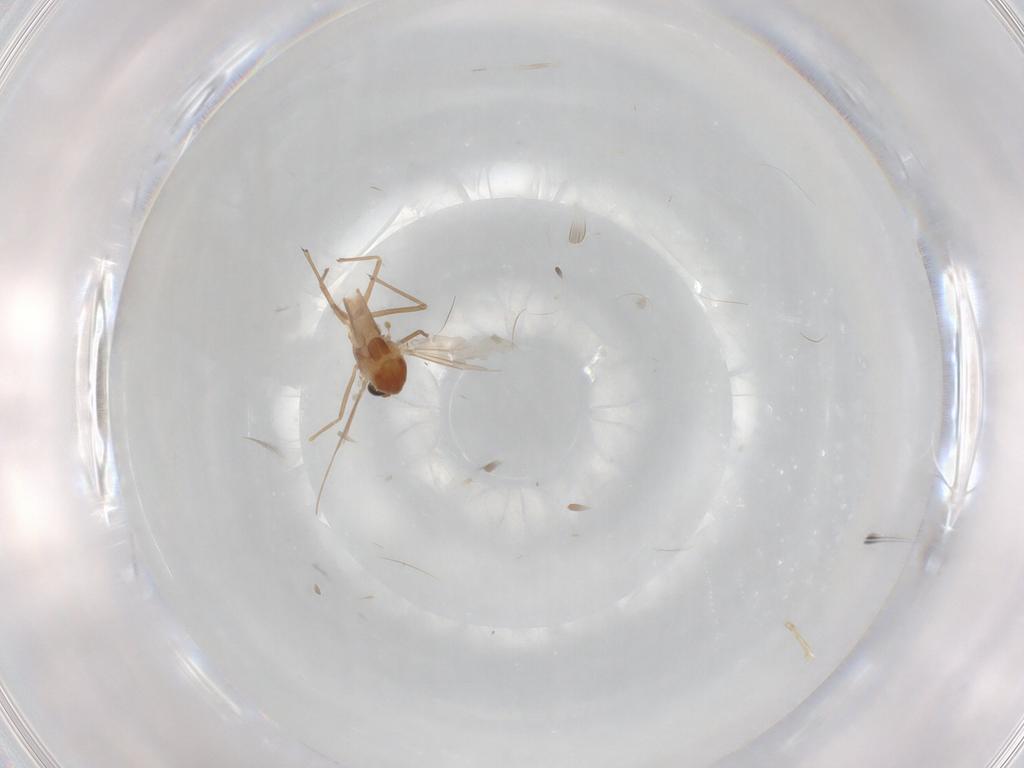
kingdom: Animalia
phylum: Arthropoda
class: Insecta
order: Diptera
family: Chironomidae
